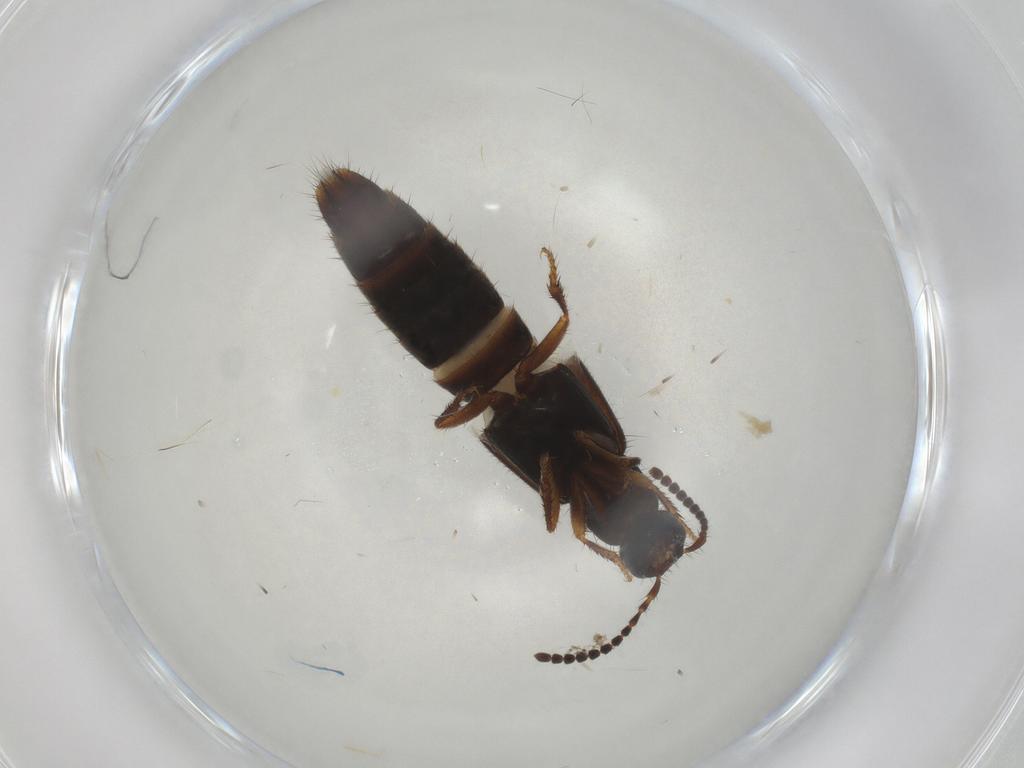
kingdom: Animalia
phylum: Arthropoda
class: Insecta
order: Coleoptera
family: Staphylinidae
